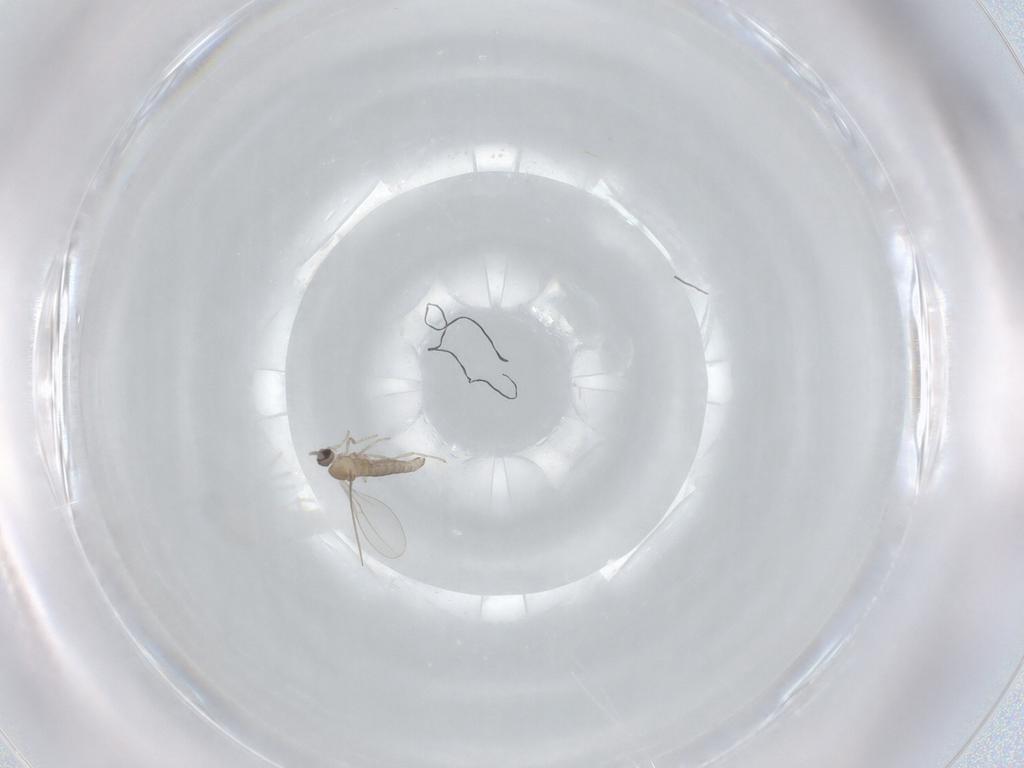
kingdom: Animalia
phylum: Arthropoda
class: Insecta
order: Diptera
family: Cecidomyiidae
